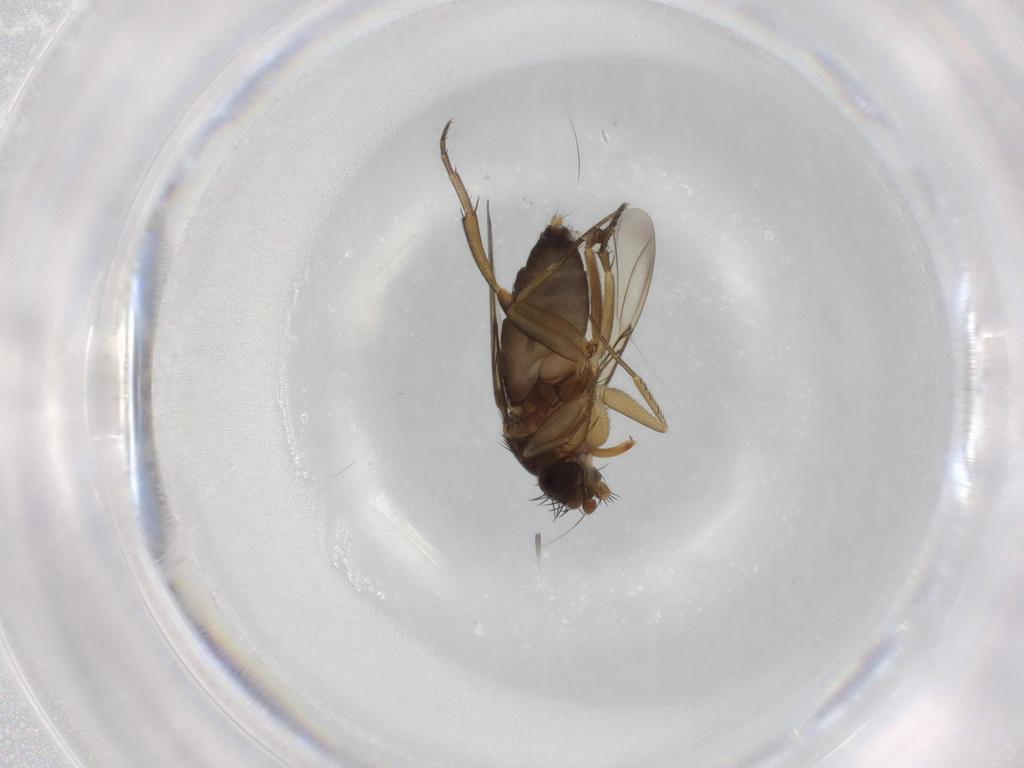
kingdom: Animalia
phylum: Arthropoda
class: Insecta
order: Diptera
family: Phoridae
